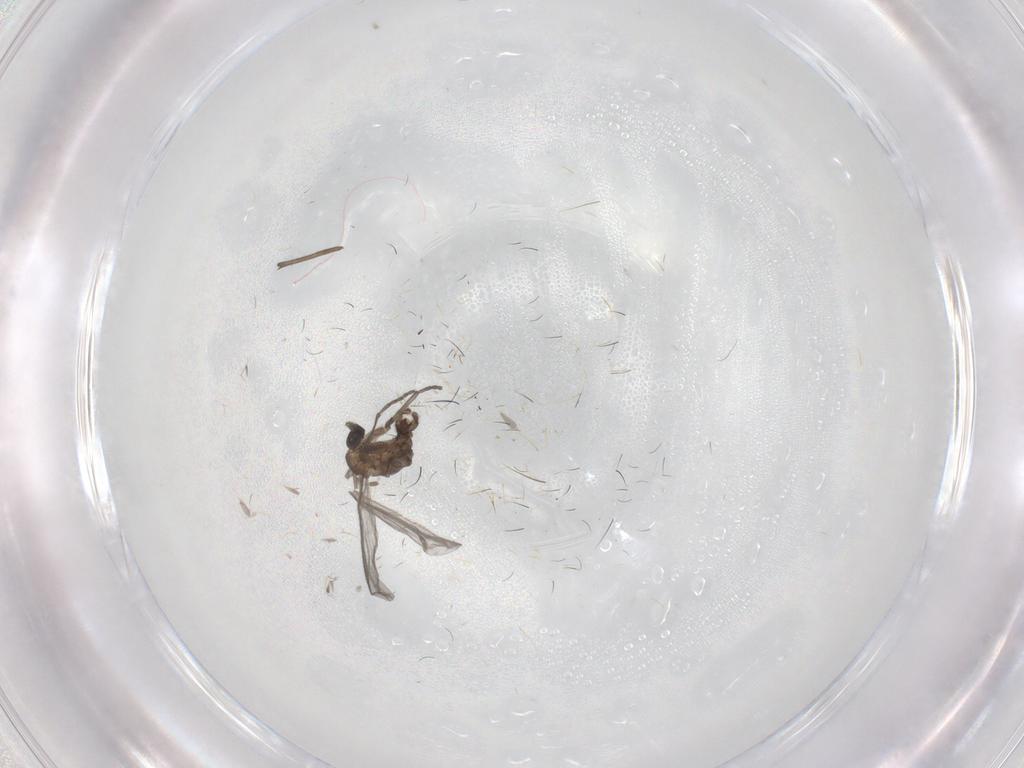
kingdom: Animalia
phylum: Arthropoda
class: Insecta
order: Diptera
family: Sciaridae
